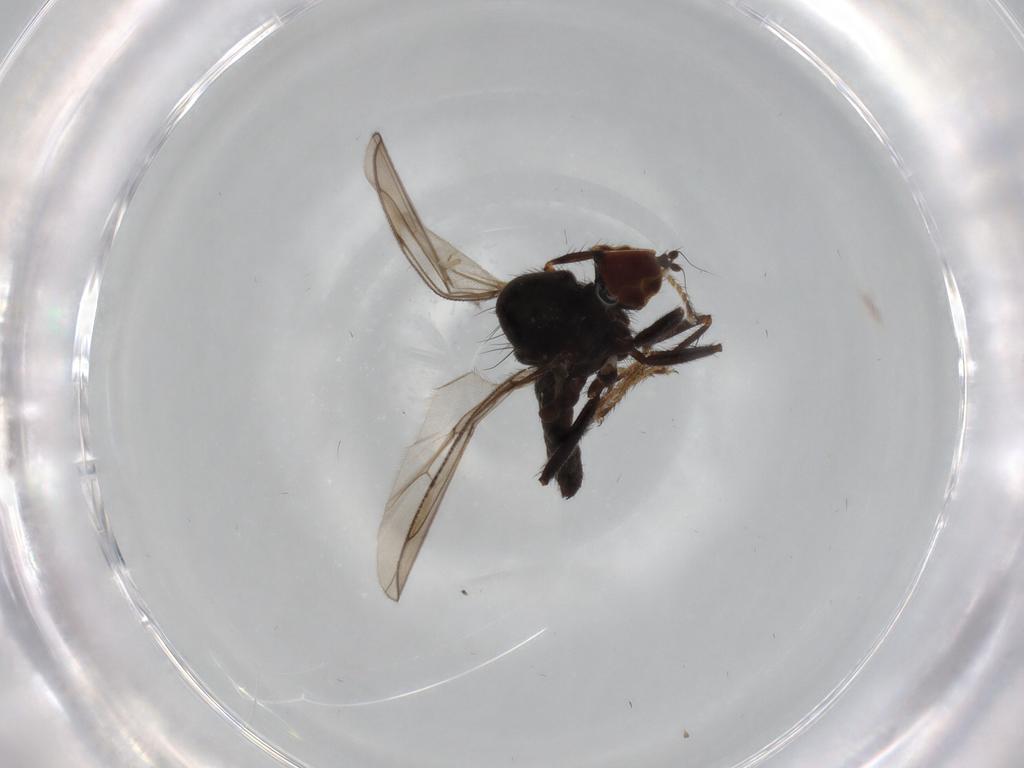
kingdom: Animalia
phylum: Arthropoda
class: Insecta
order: Diptera
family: Hybotidae
